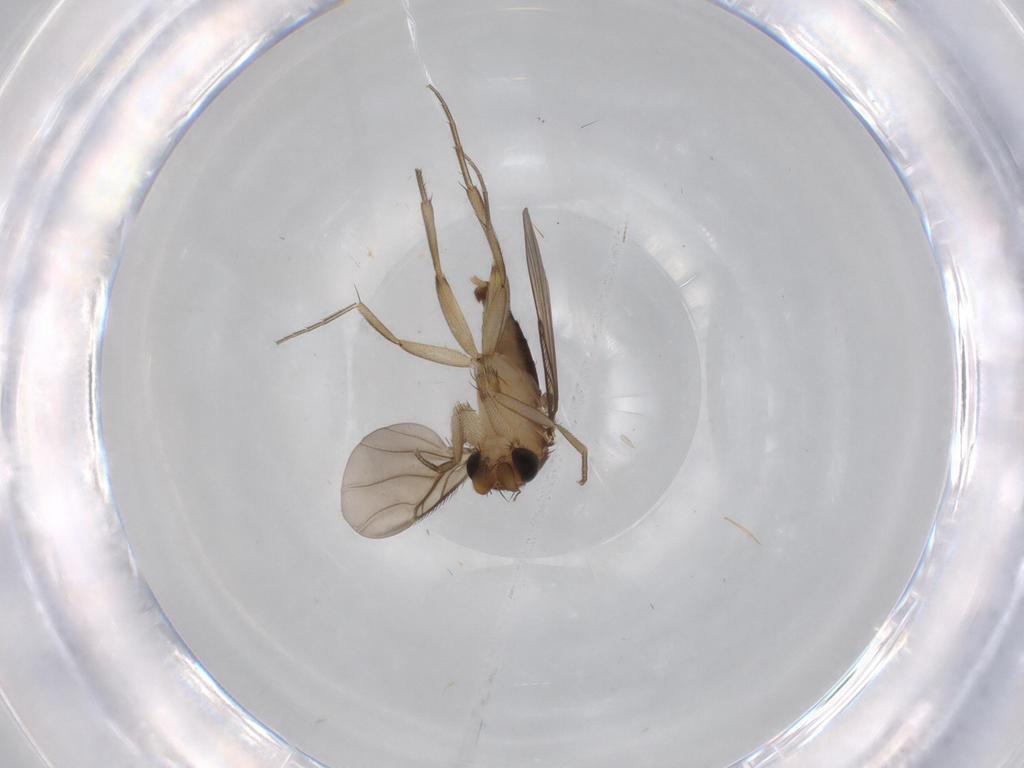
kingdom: Animalia
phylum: Arthropoda
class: Insecta
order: Diptera
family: Phoridae
